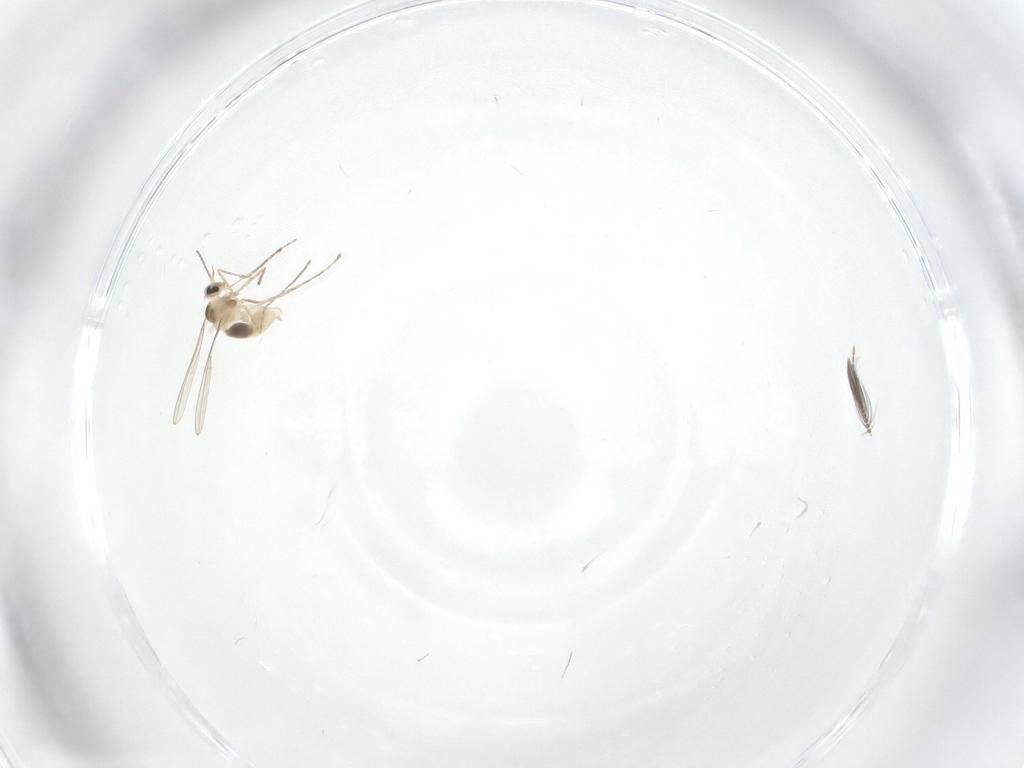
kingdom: Animalia
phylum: Arthropoda
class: Insecta
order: Diptera
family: Cecidomyiidae
